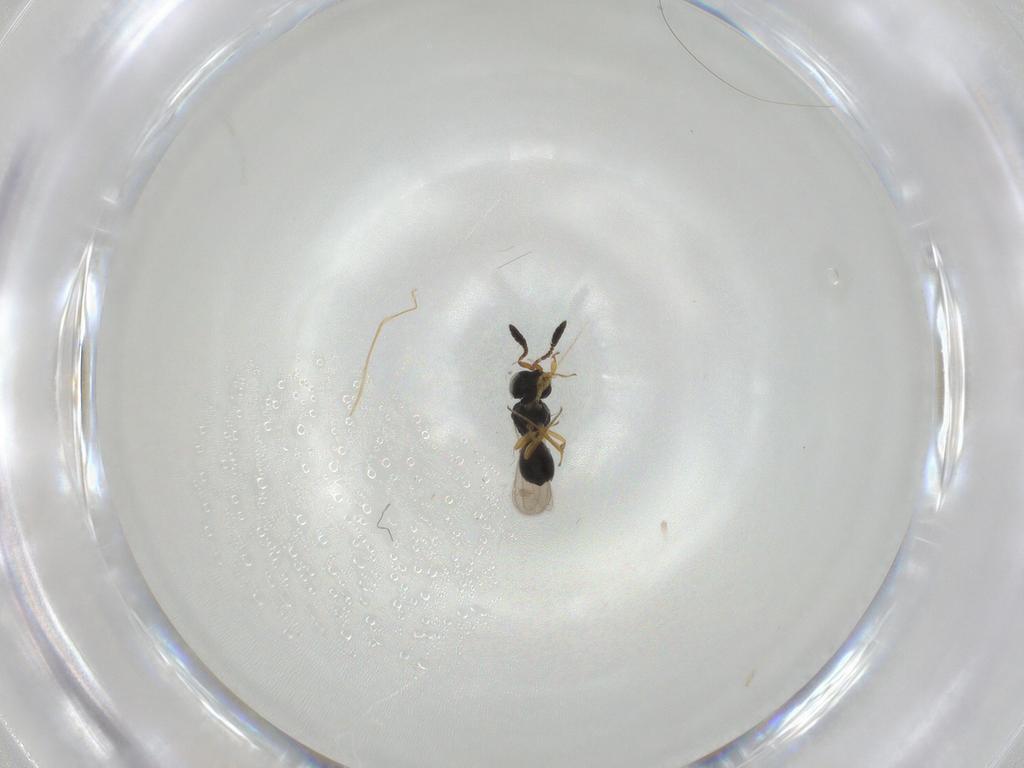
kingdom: Animalia
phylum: Arthropoda
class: Insecta
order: Hymenoptera
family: Scelionidae
